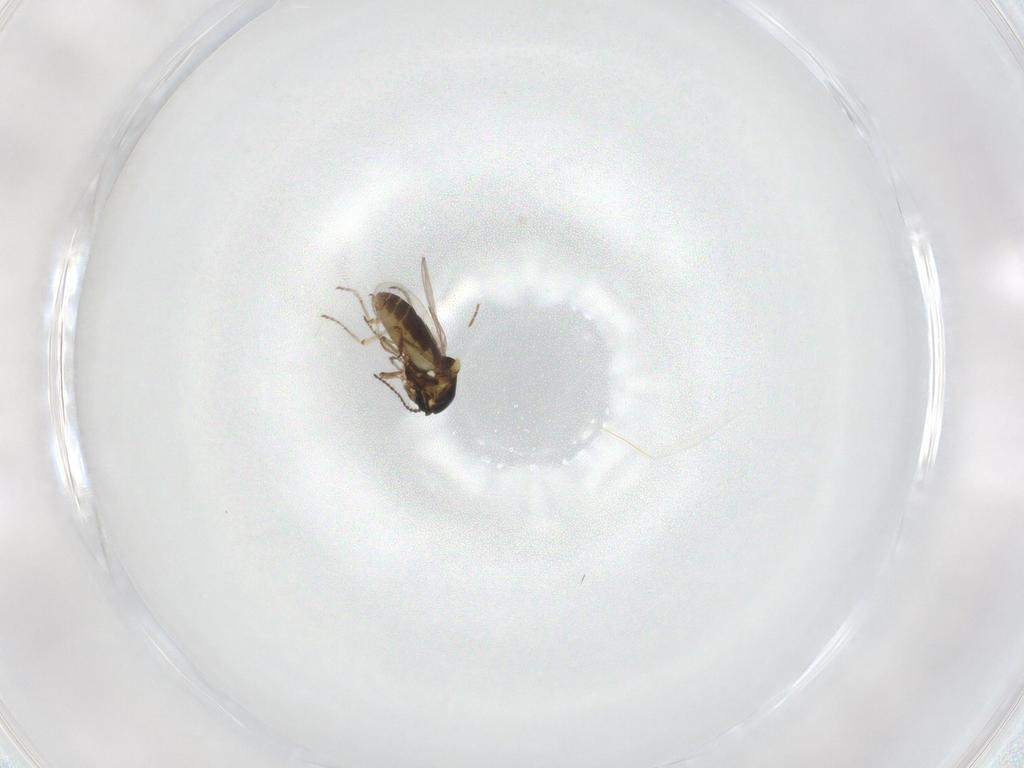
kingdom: Animalia
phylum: Arthropoda
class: Insecta
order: Diptera
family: Ceratopogonidae
